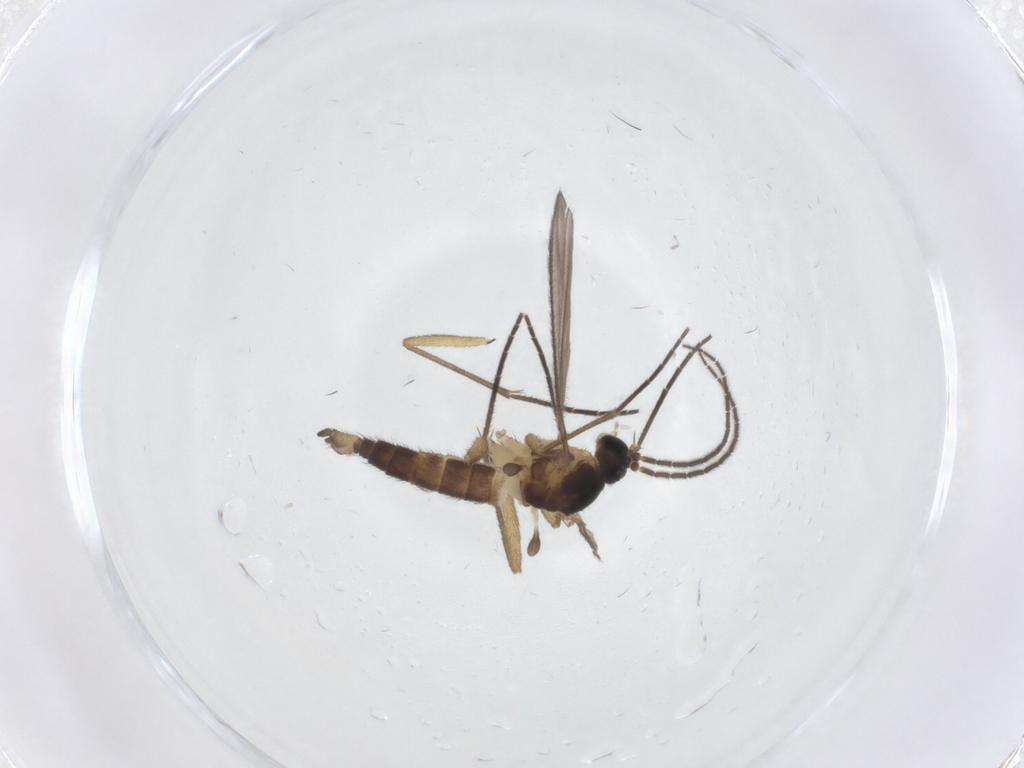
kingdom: Animalia
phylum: Arthropoda
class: Insecta
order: Diptera
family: Sciaridae
